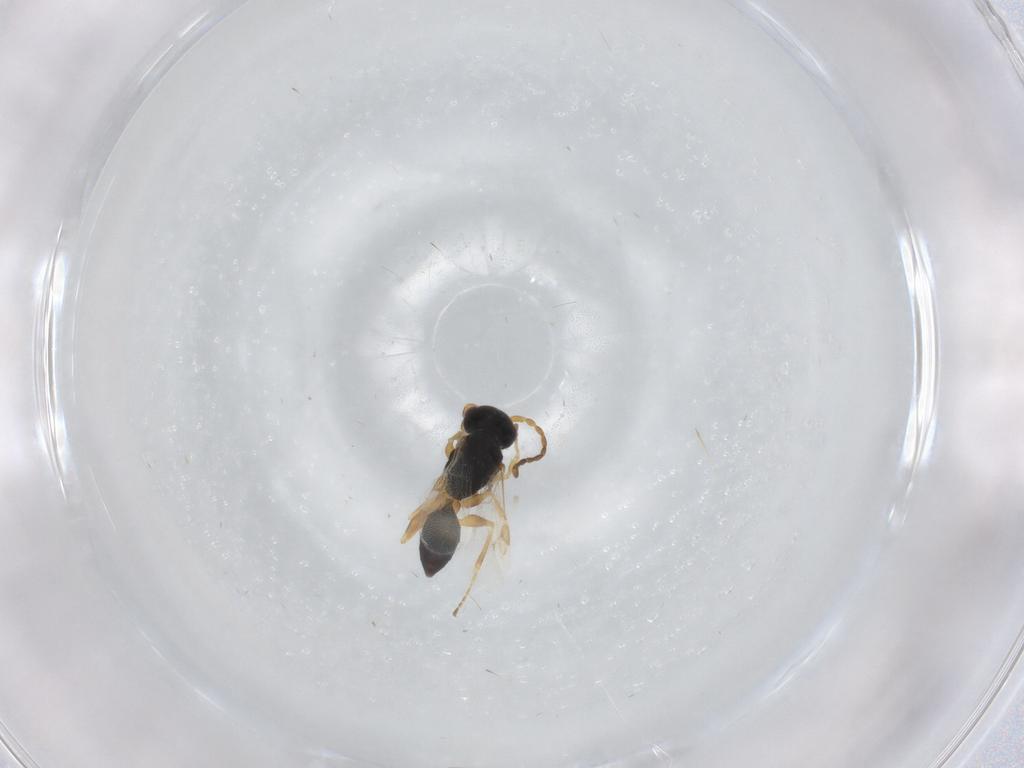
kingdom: Animalia
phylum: Arthropoda
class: Insecta
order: Hymenoptera
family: Dryinidae
